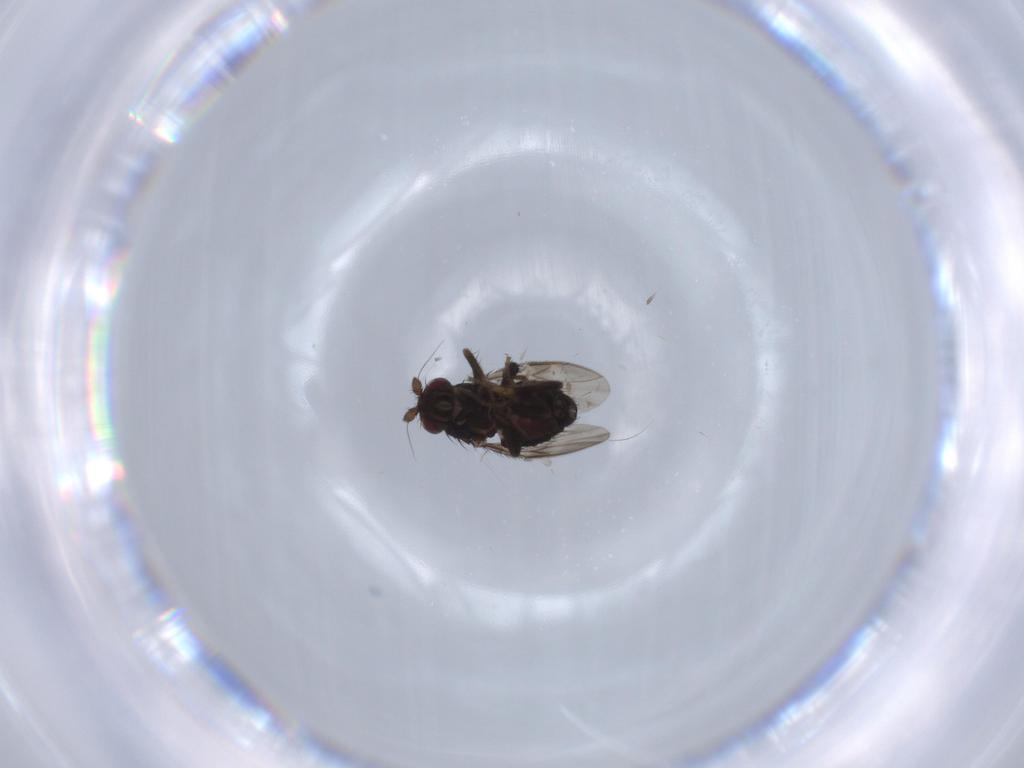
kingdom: Animalia
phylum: Arthropoda
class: Insecta
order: Diptera
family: Sphaeroceridae
